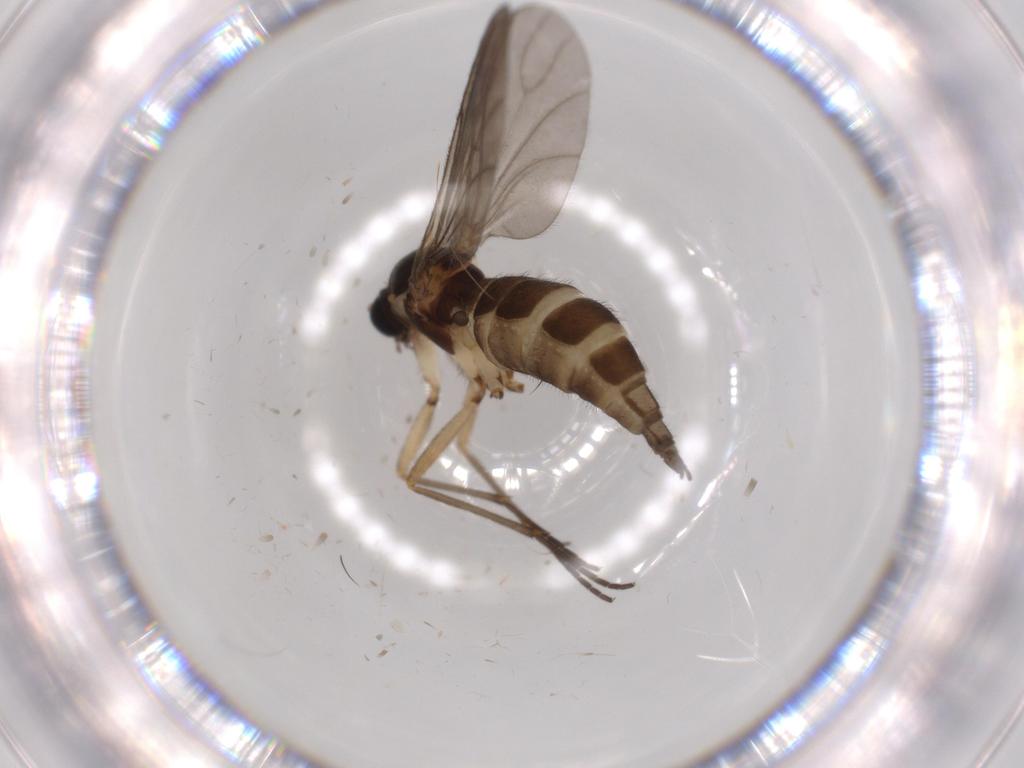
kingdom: Animalia
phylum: Arthropoda
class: Insecta
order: Diptera
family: Sciaridae
